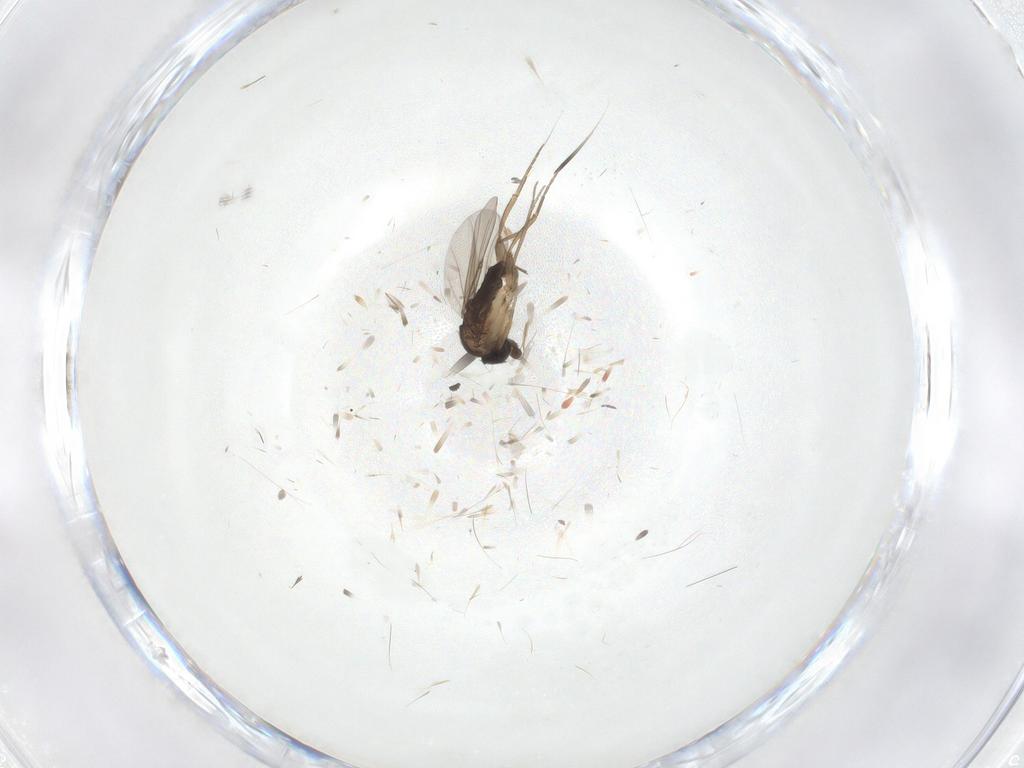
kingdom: Animalia
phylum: Arthropoda
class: Insecta
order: Diptera
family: Phoridae
